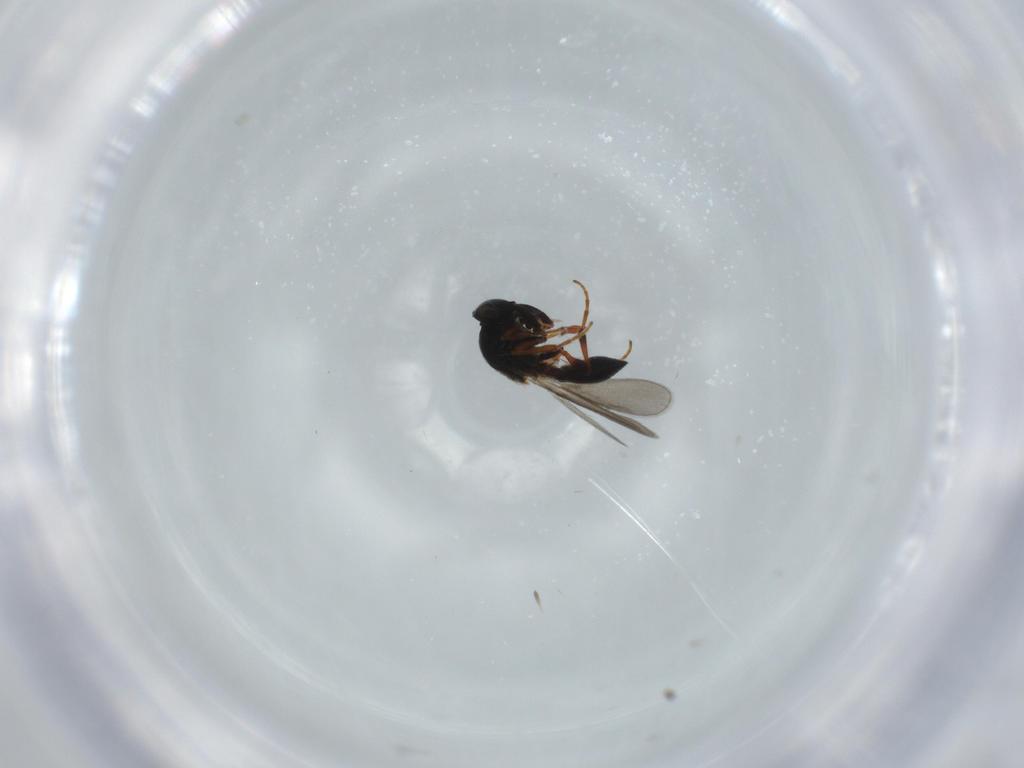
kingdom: Animalia
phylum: Arthropoda
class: Insecta
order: Hymenoptera
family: Platygastridae
